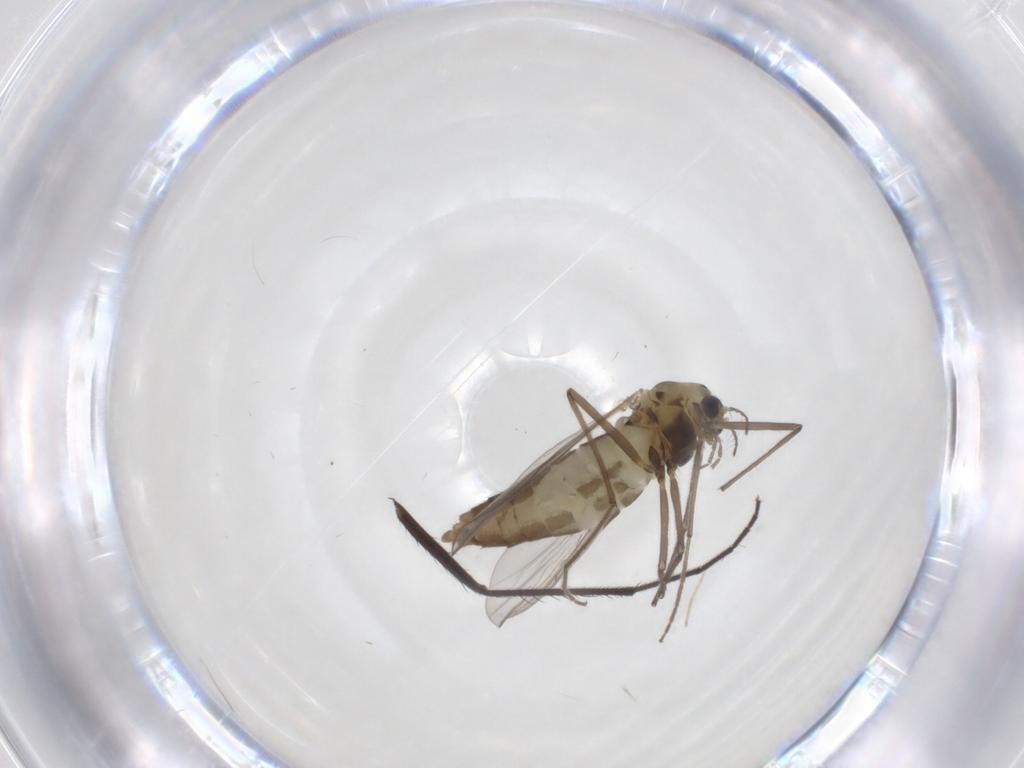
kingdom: Animalia
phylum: Arthropoda
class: Insecta
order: Diptera
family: Chironomidae
